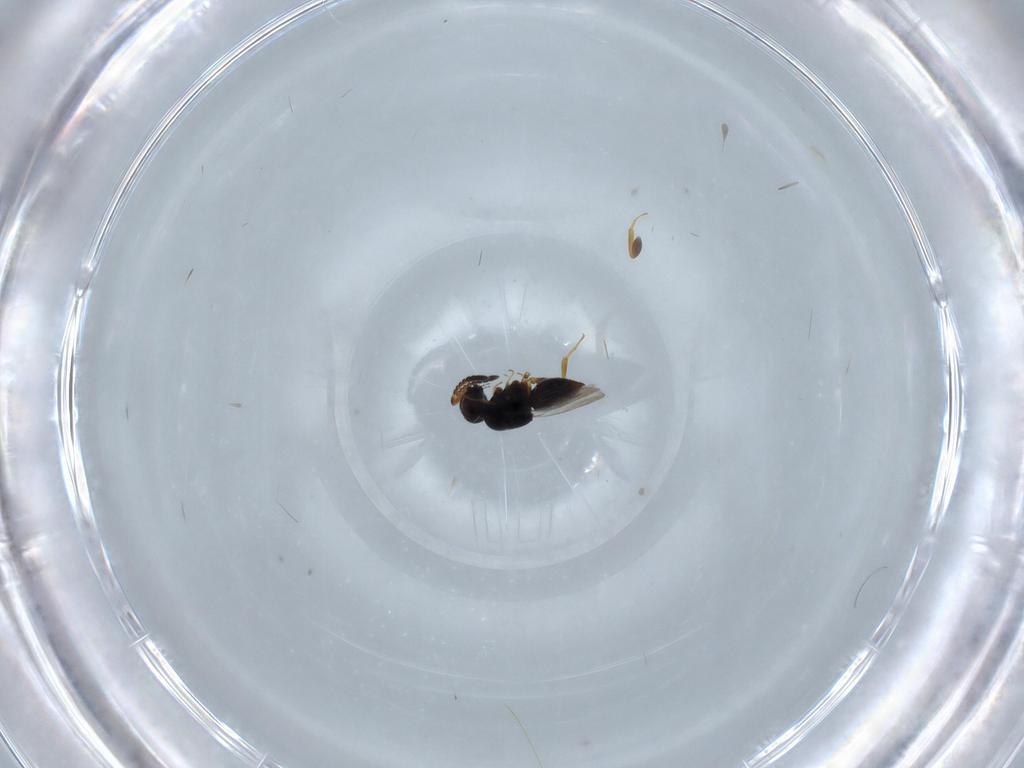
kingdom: Animalia
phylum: Arthropoda
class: Insecta
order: Hymenoptera
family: Ceraphronidae
